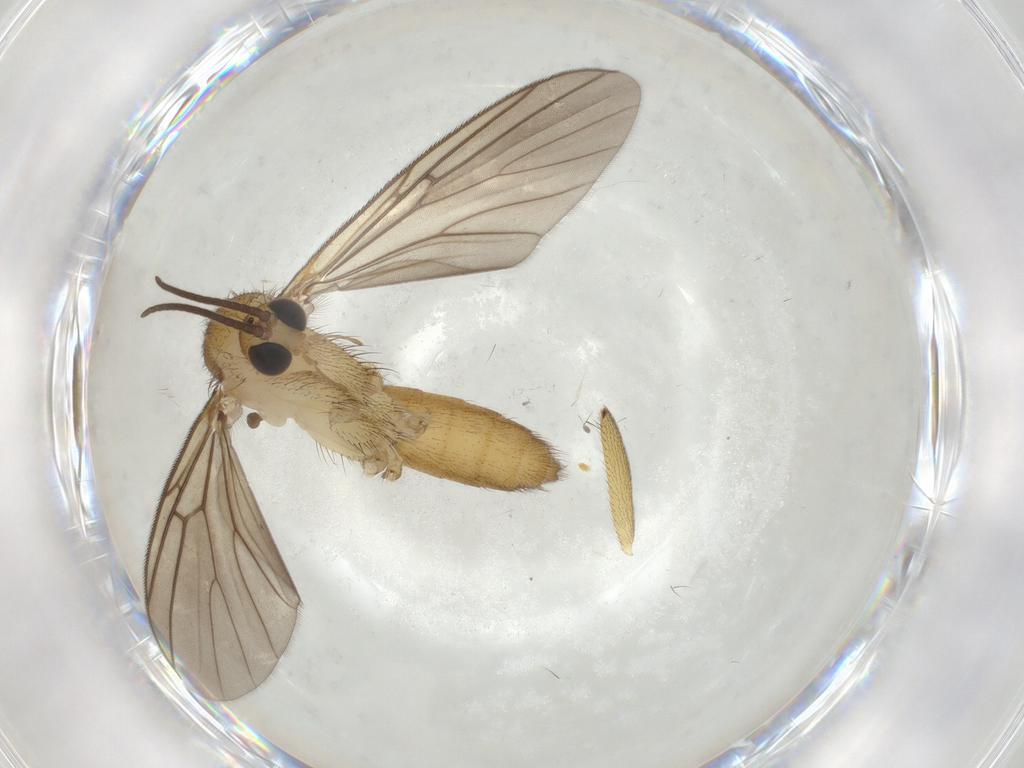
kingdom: Animalia
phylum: Arthropoda
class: Insecta
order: Diptera
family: Mycetophilidae
